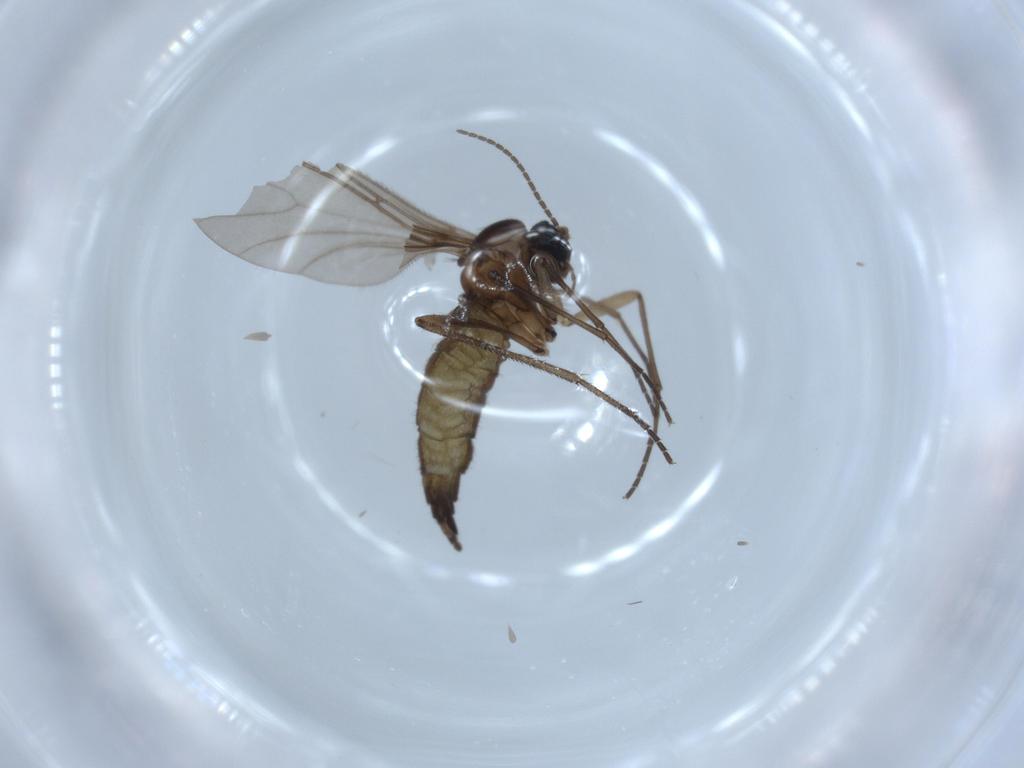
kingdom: Animalia
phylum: Arthropoda
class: Insecta
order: Diptera
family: Sciaridae
